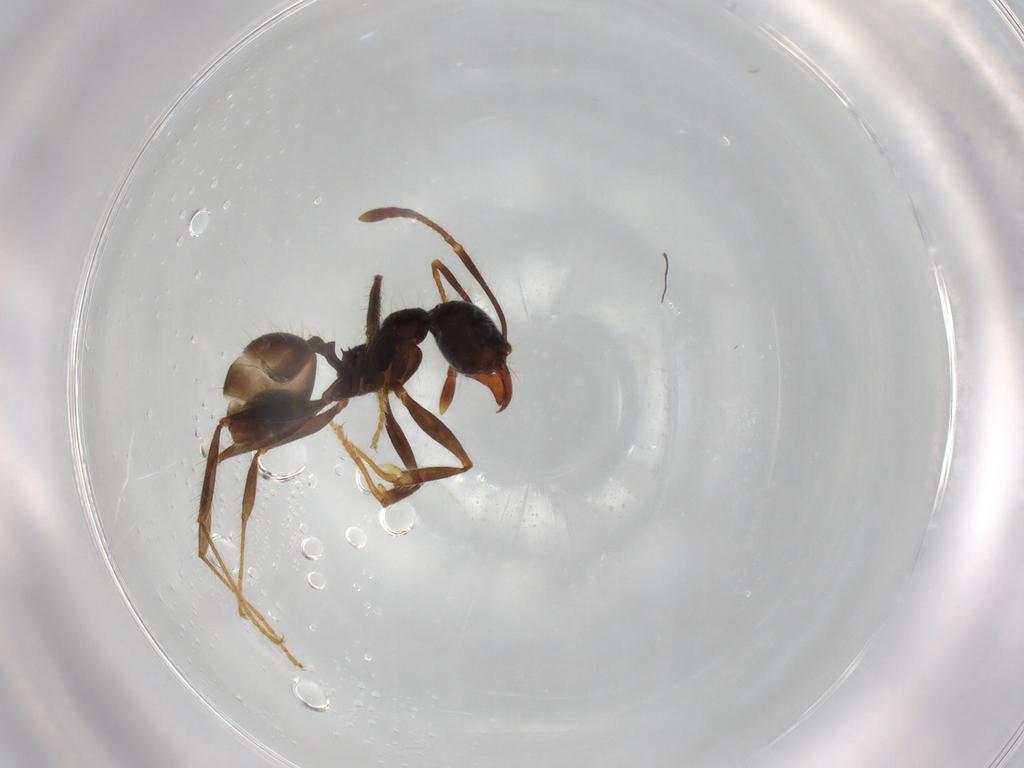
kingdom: Animalia
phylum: Arthropoda
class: Insecta
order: Hymenoptera
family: Formicidae
